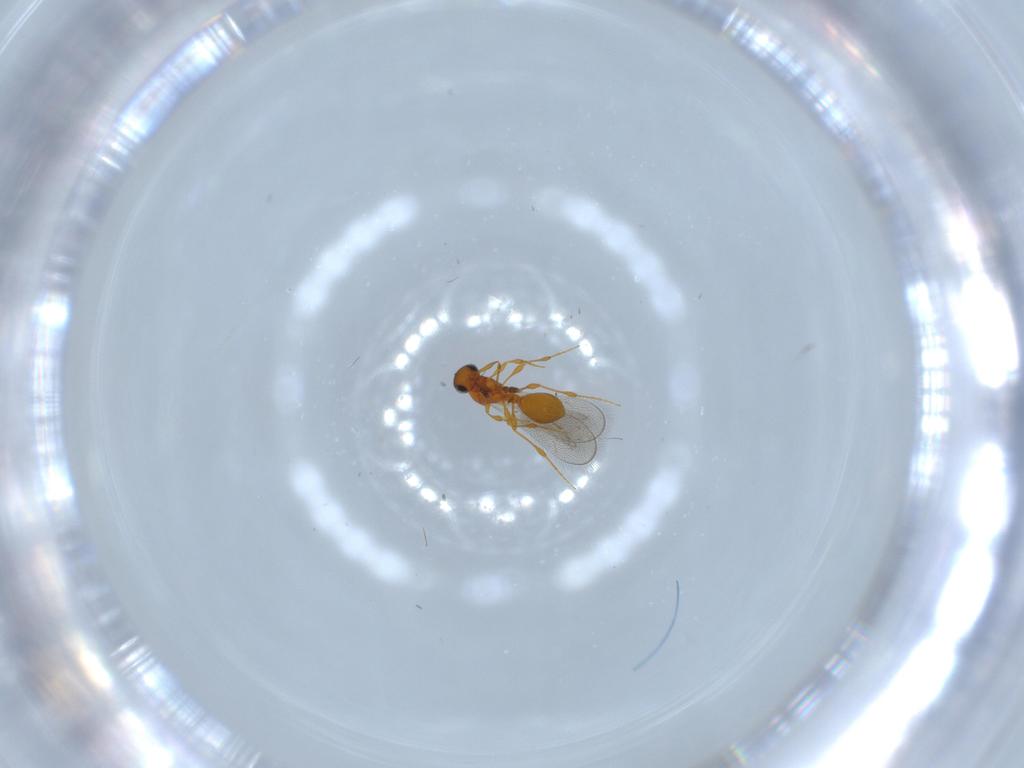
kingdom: Animalia
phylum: Arthropoda
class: Insecta
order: Hymenoptera
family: Platygastridae
